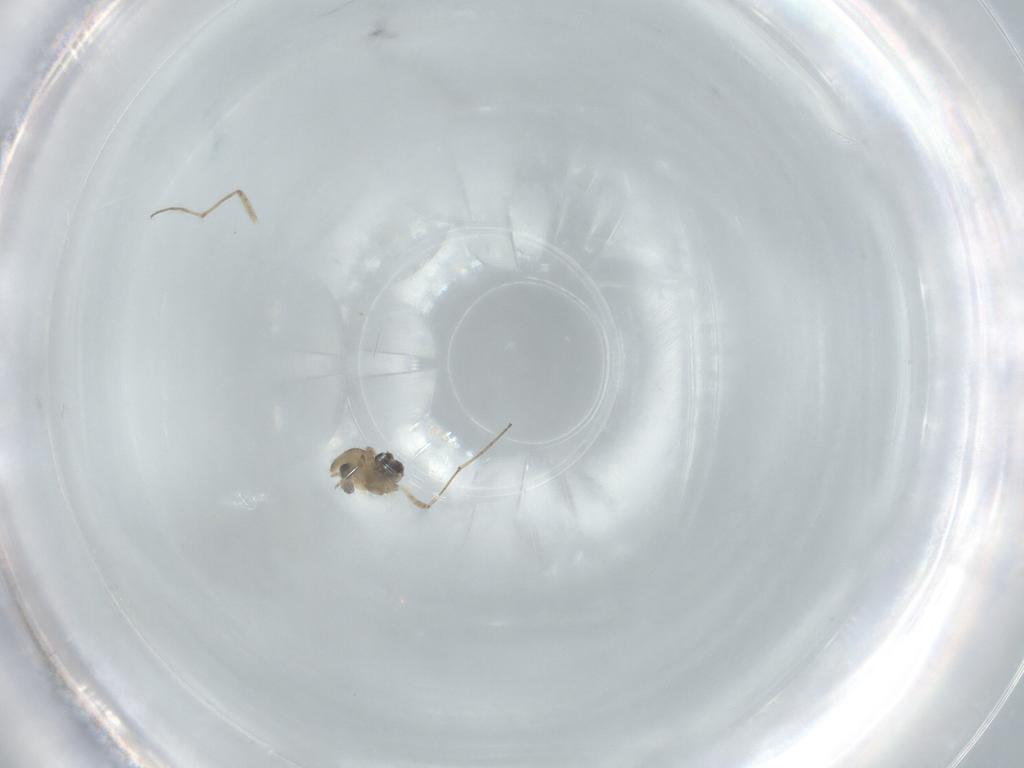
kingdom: Animalia
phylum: Arthropoda
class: Insecta
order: Diptera
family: Chironomidae
